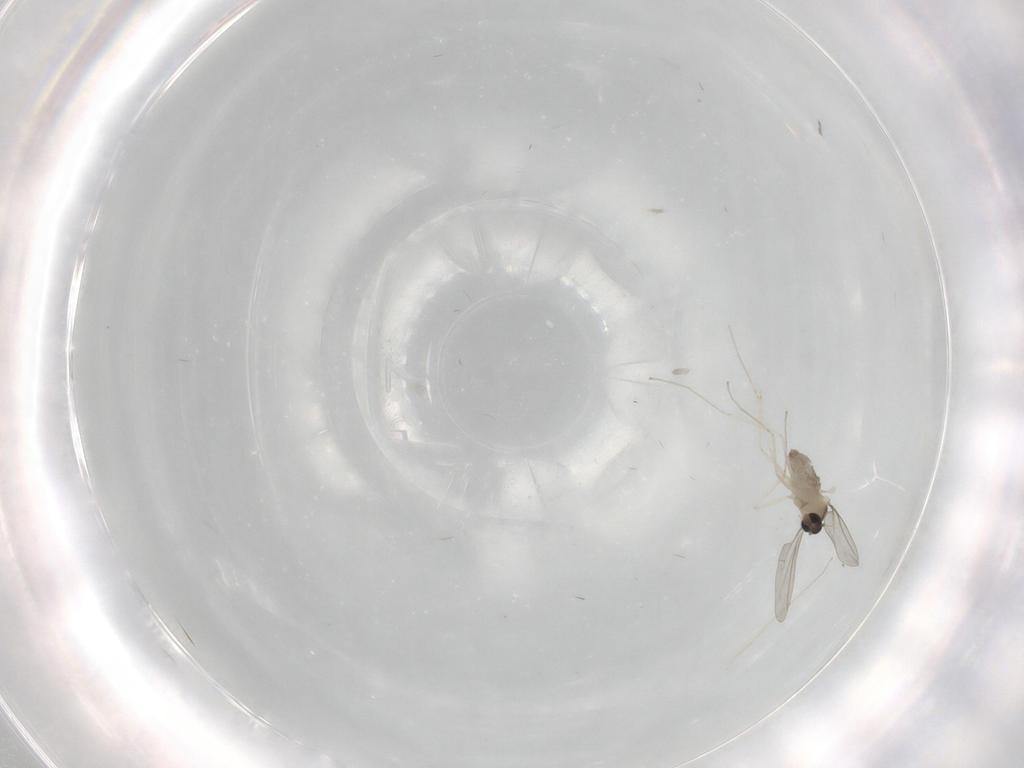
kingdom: Animalia
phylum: Arthropoda
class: Insecta
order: Diptera
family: Cecidomyiidae
